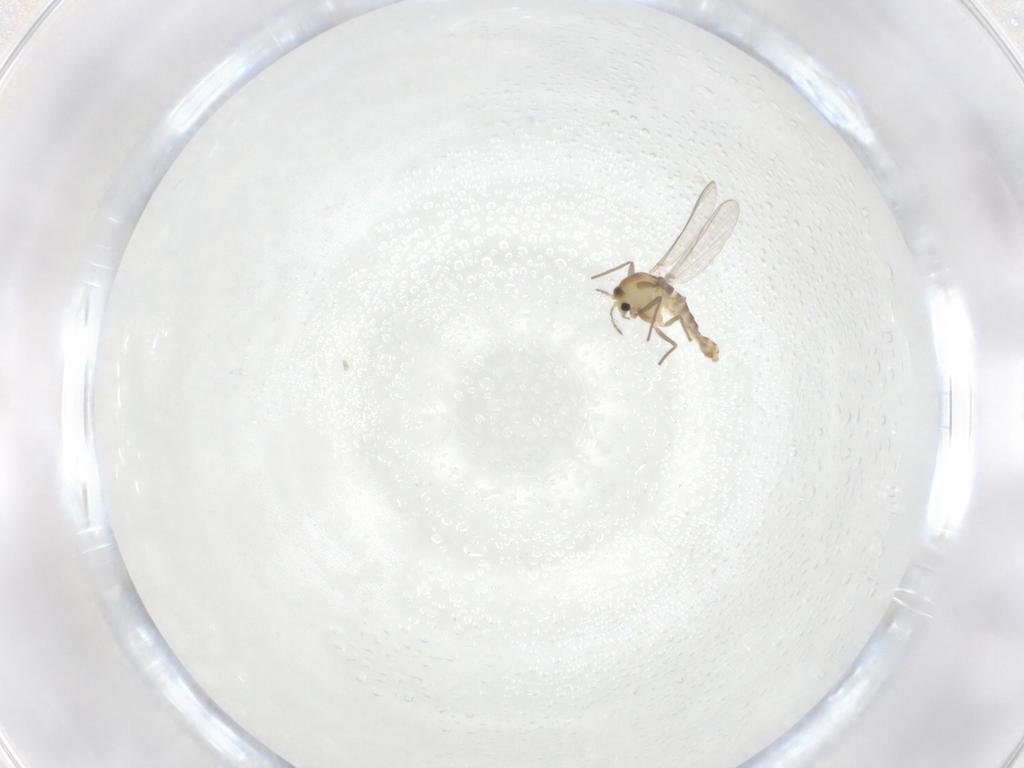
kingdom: Animalia
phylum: Arthropoda
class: Insecta
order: Diptera
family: Chironomidae
